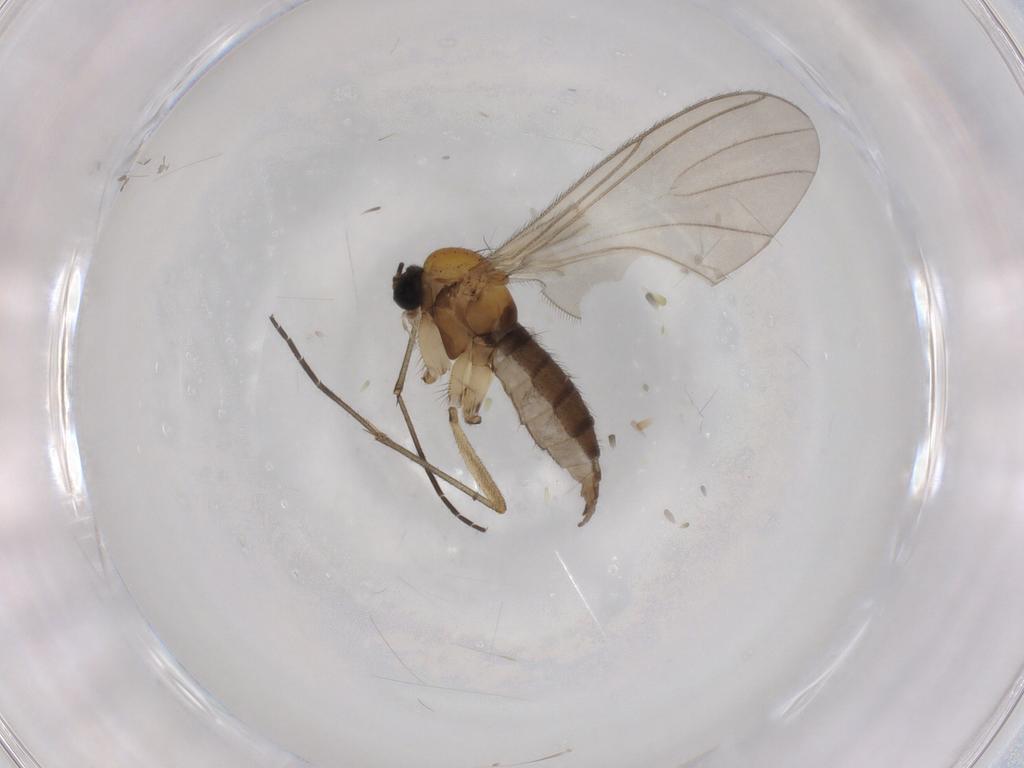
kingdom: Animalia
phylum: Arthropoda
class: Insecta
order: Diptera
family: Sciaridae
